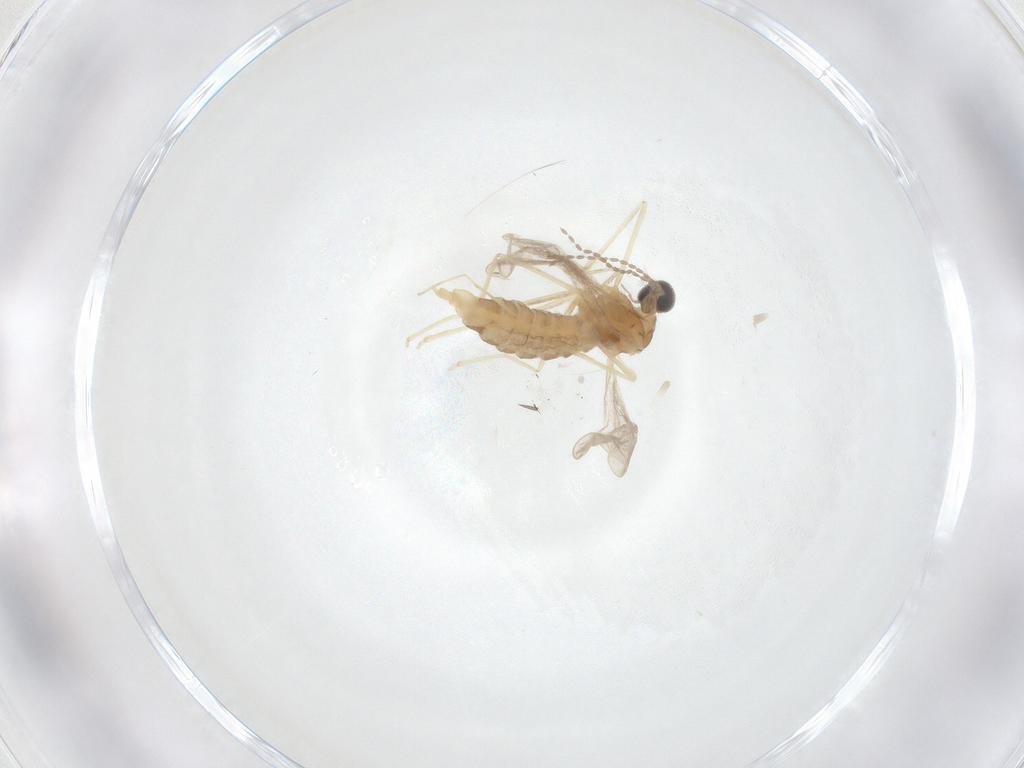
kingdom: Animalia
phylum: Arthropoda
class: Insecta
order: Diptera
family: Cecidomyiidae
